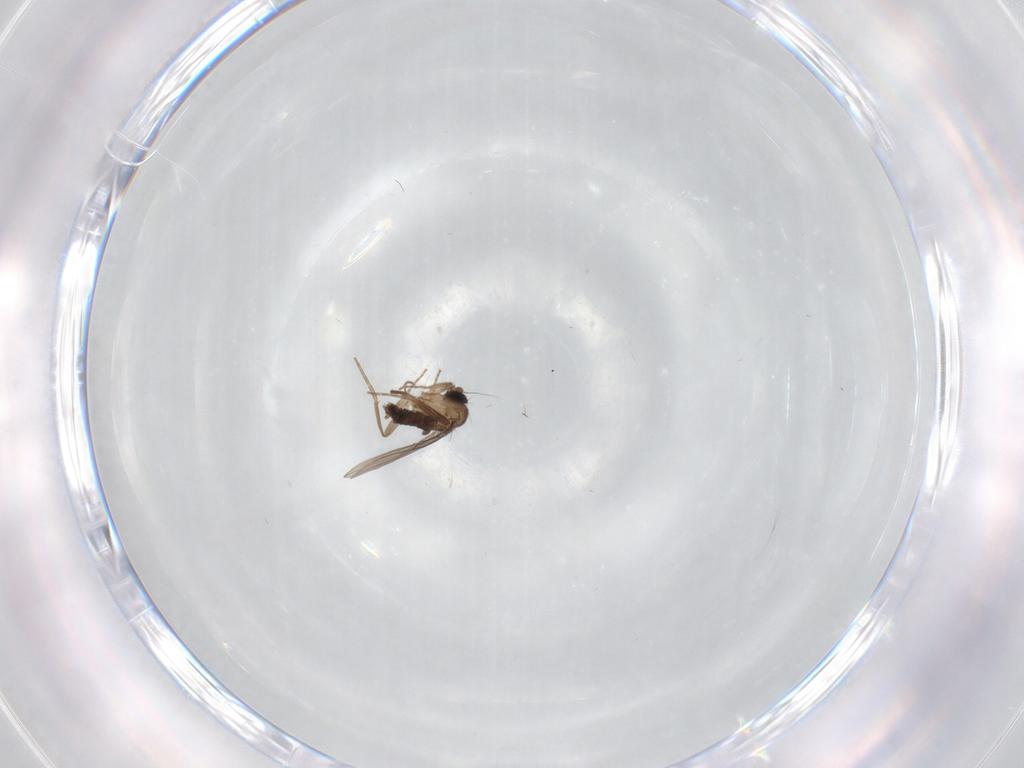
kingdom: Animalia
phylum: Arthropoda
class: Insecta
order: Diptera
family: Phoridae
